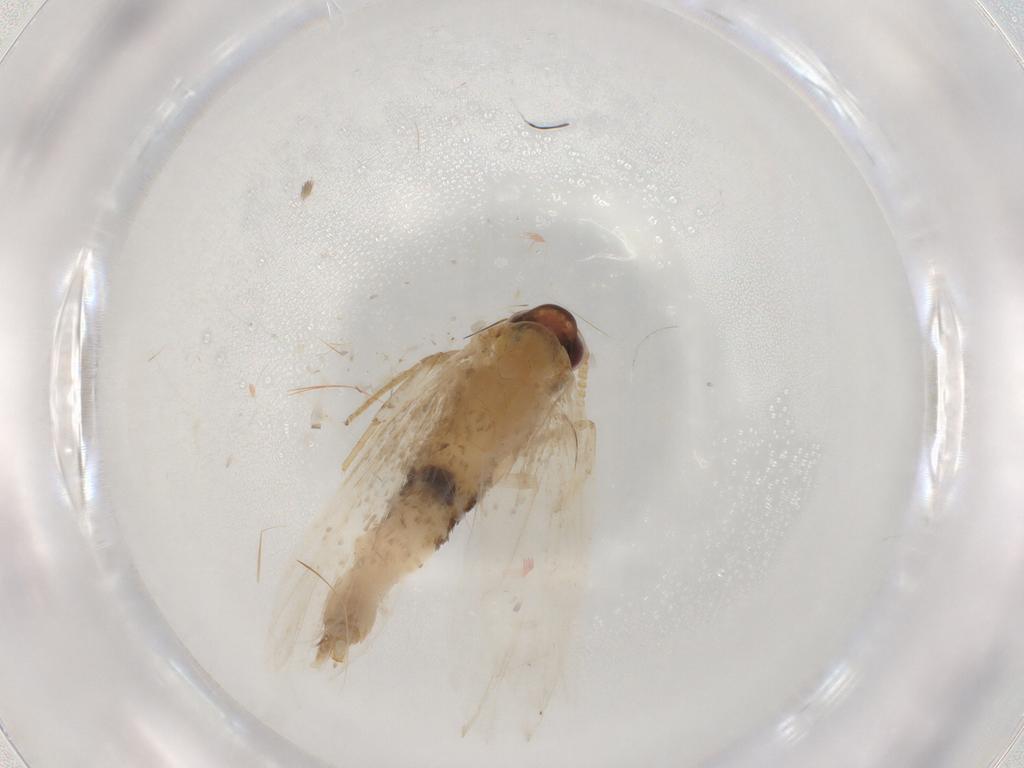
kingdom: Animalia
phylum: Arthropoda
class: Insecta
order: Lepidoptera
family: Lecithoceridae
